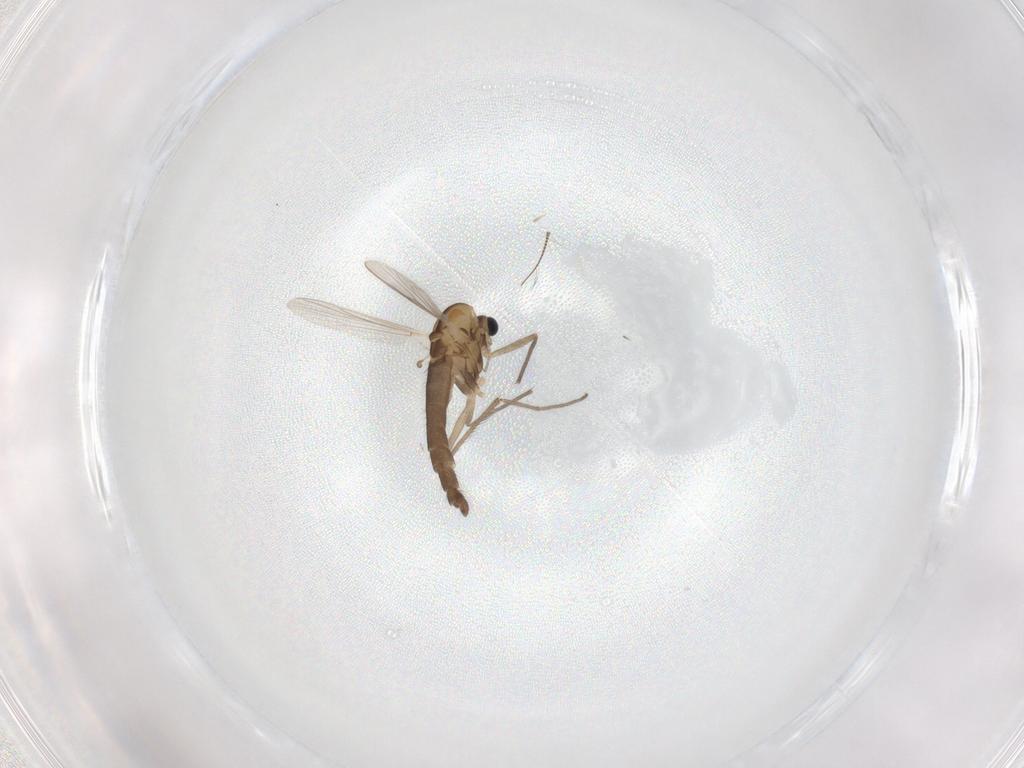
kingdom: Animalia
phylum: Arthropoda
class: Insecta
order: Diptera
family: Chironomidae
